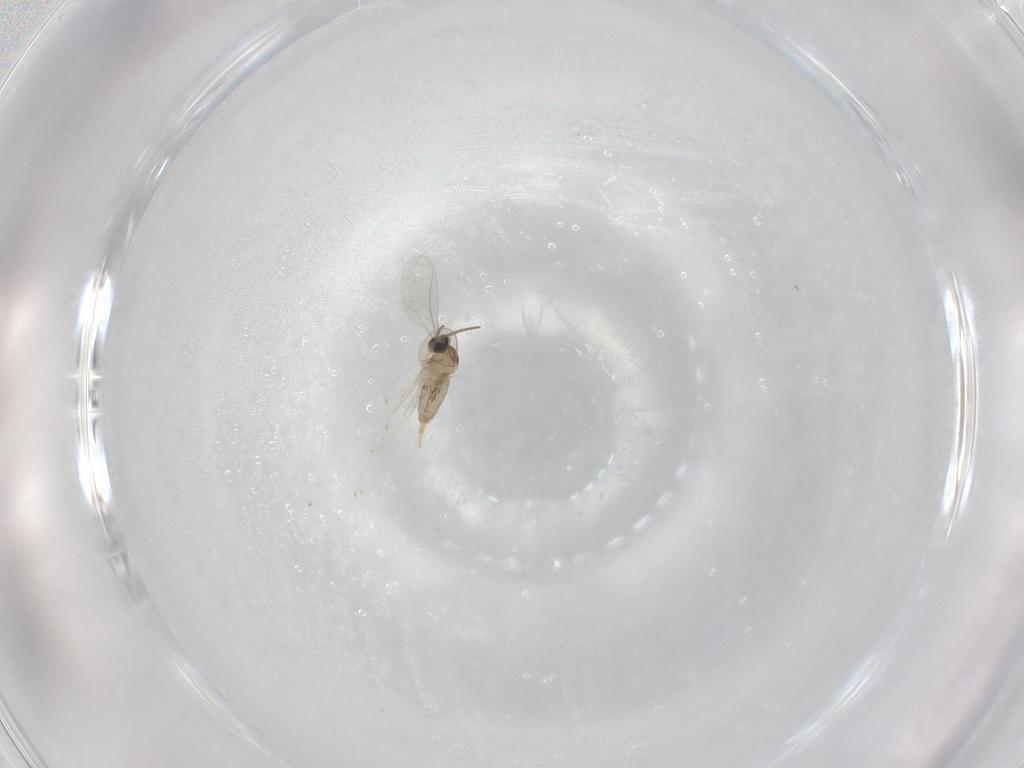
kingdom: Animalia
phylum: Arthropoda
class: Insecta
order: Diptera
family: Cecidomyiidae
